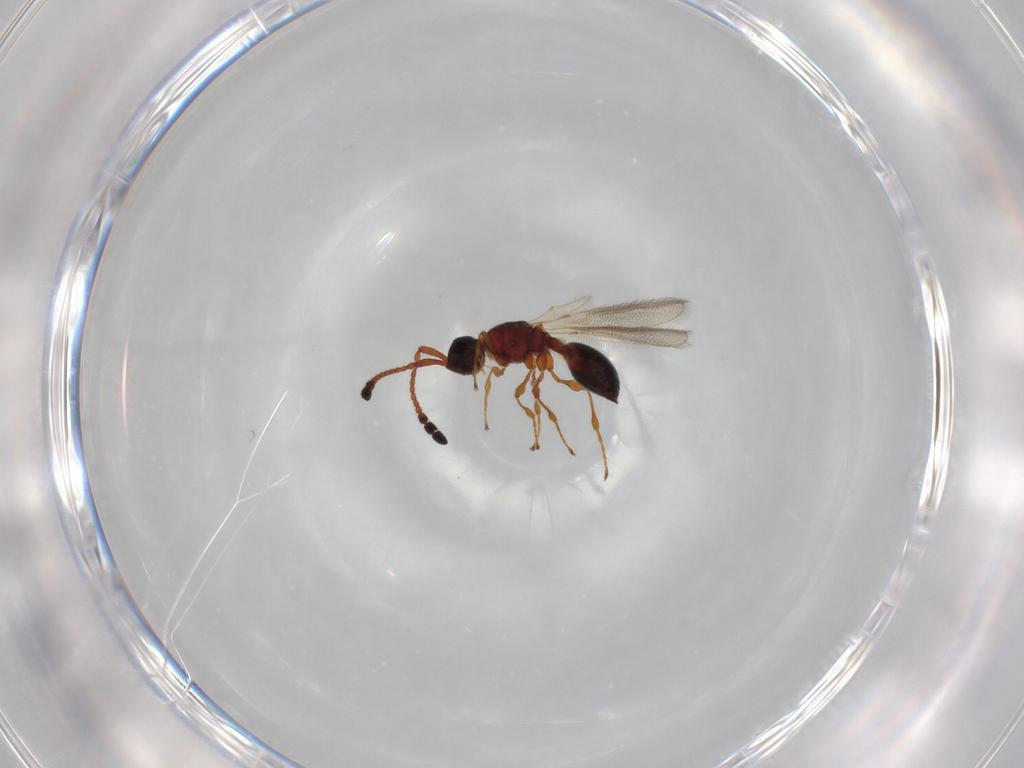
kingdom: Animalia
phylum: Arthropoda
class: Insecta
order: Hymenoptera
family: Diapriidae
